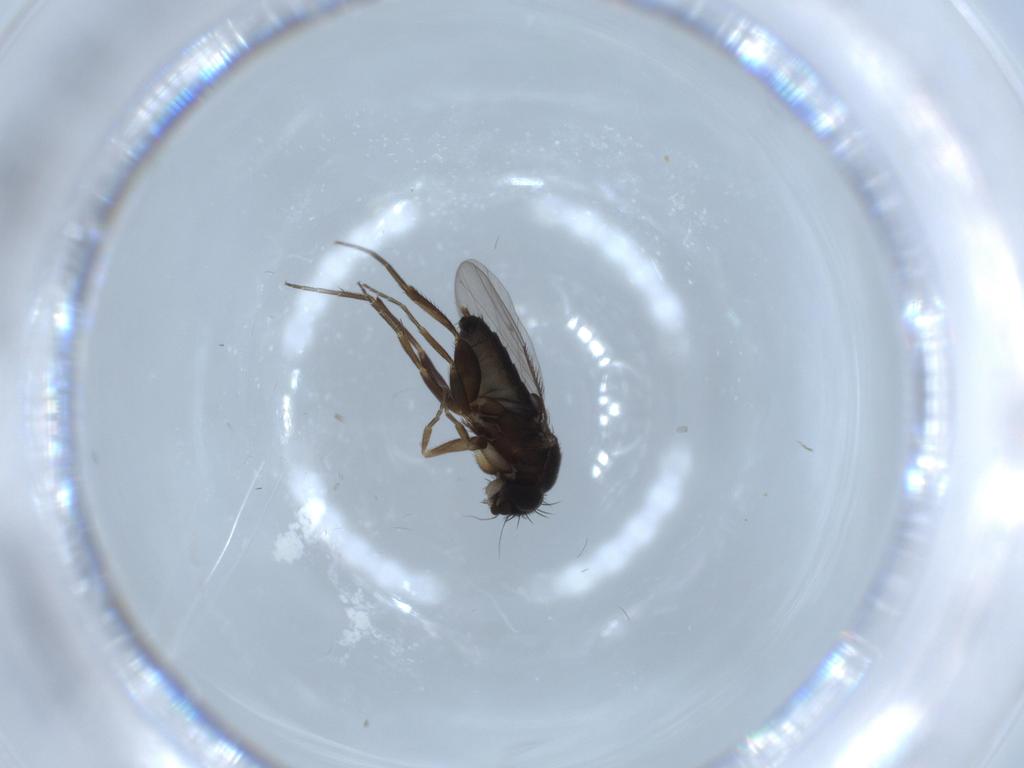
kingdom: Animalia
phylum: Arthropoda
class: Insecta
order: Diptera
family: Phoridae
